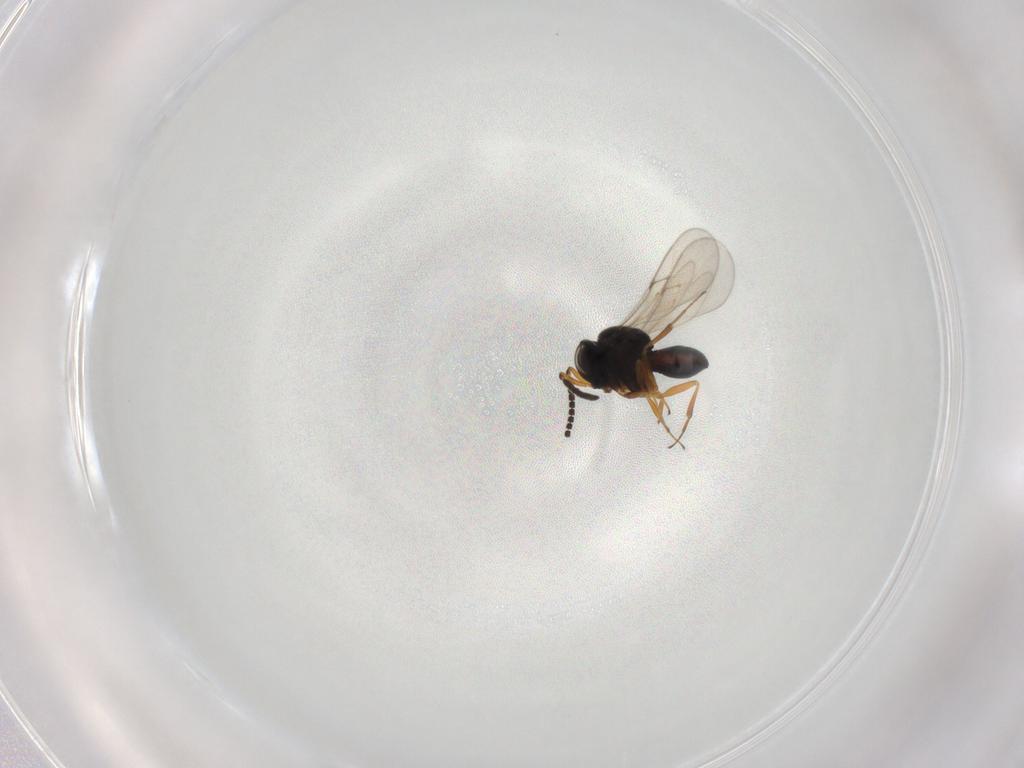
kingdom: Animalia
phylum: Arthropoda
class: Insecta
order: Hymenoptera
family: Scelionidae
